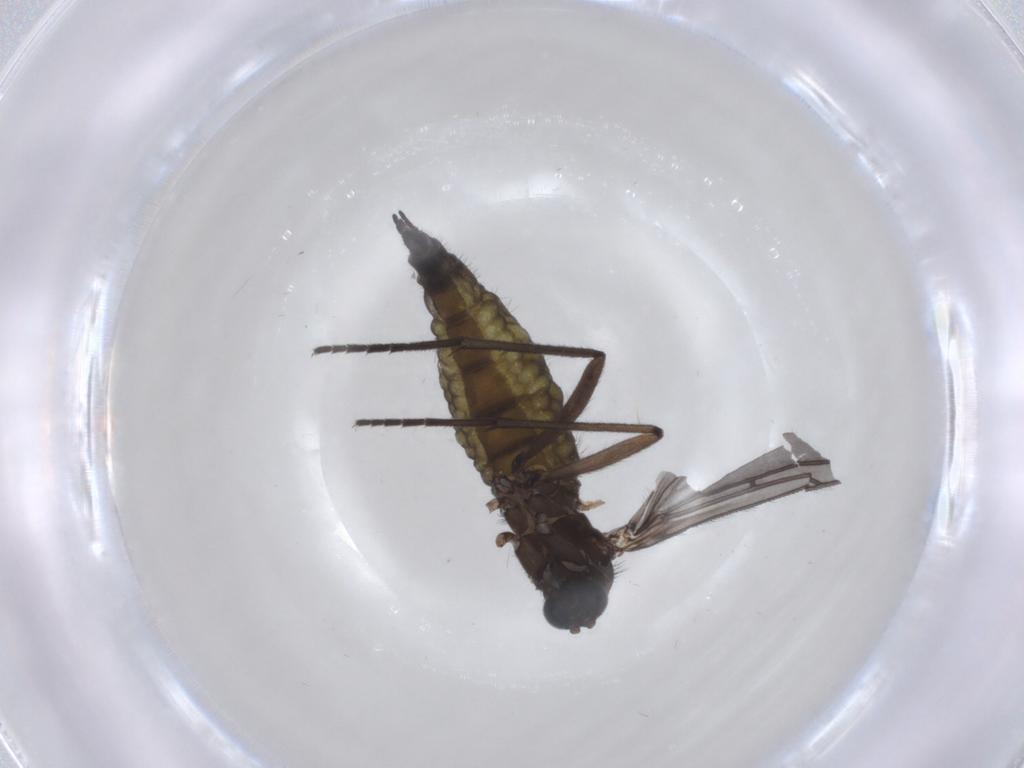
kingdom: Animalia
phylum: Arthropoda
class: Insecta
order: Diptera
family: Sciaridae
